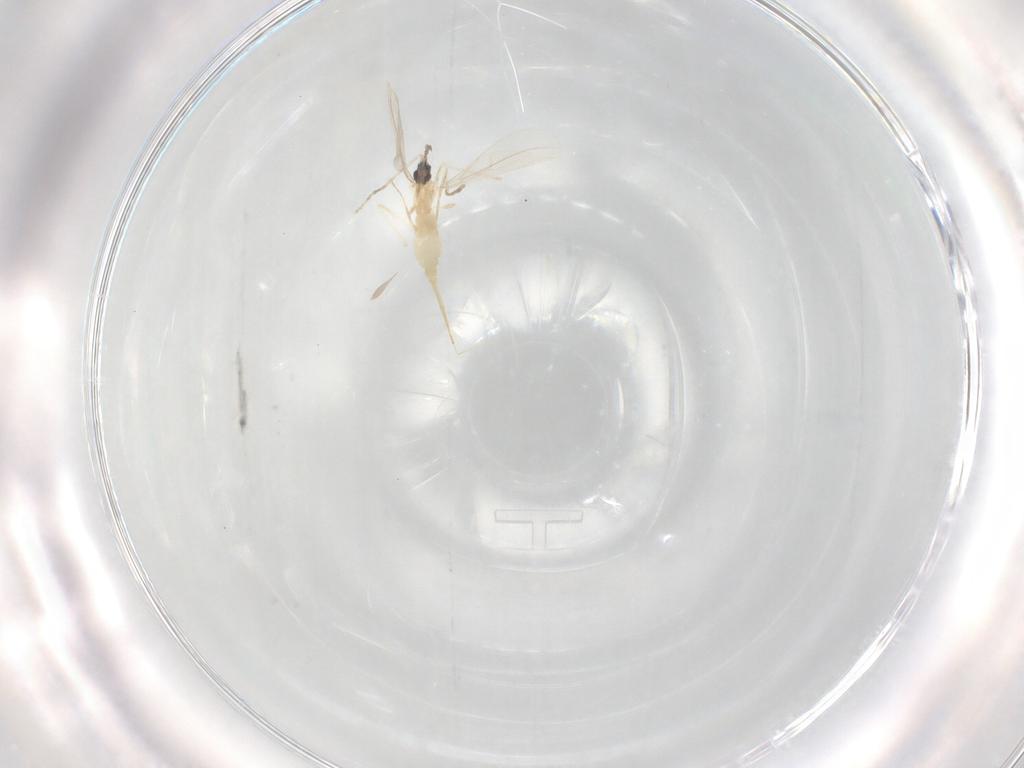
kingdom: Animalia
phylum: Arthropoda
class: Insecta
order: Diptera
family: Cecidomyiidae
